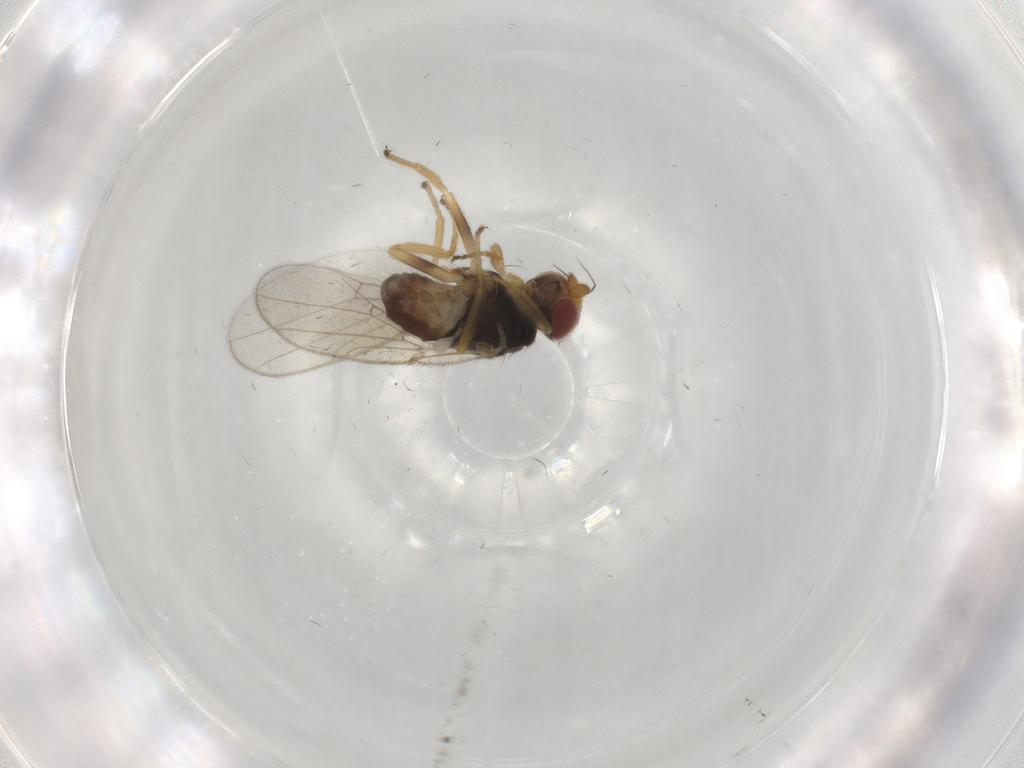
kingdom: Animalia
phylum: Arthropoda
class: Insecta
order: Diptera
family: Chloropidae
